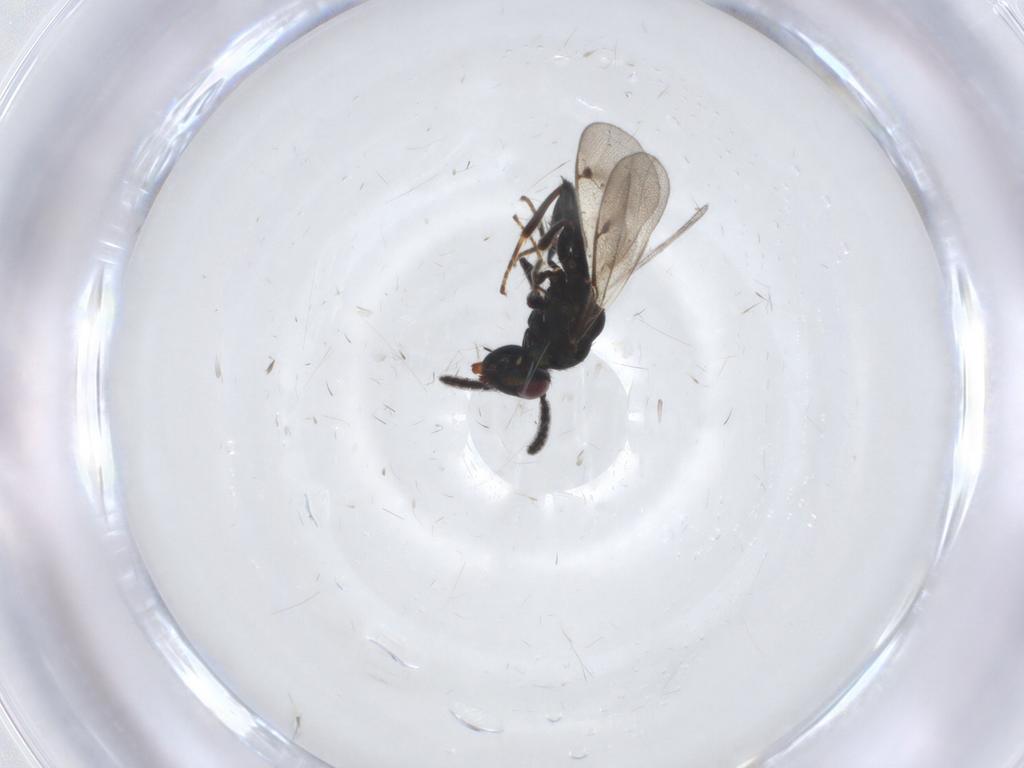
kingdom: Animalia
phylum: Arthropoda
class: Insecta
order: Hymenoptera
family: Pteromalidae
